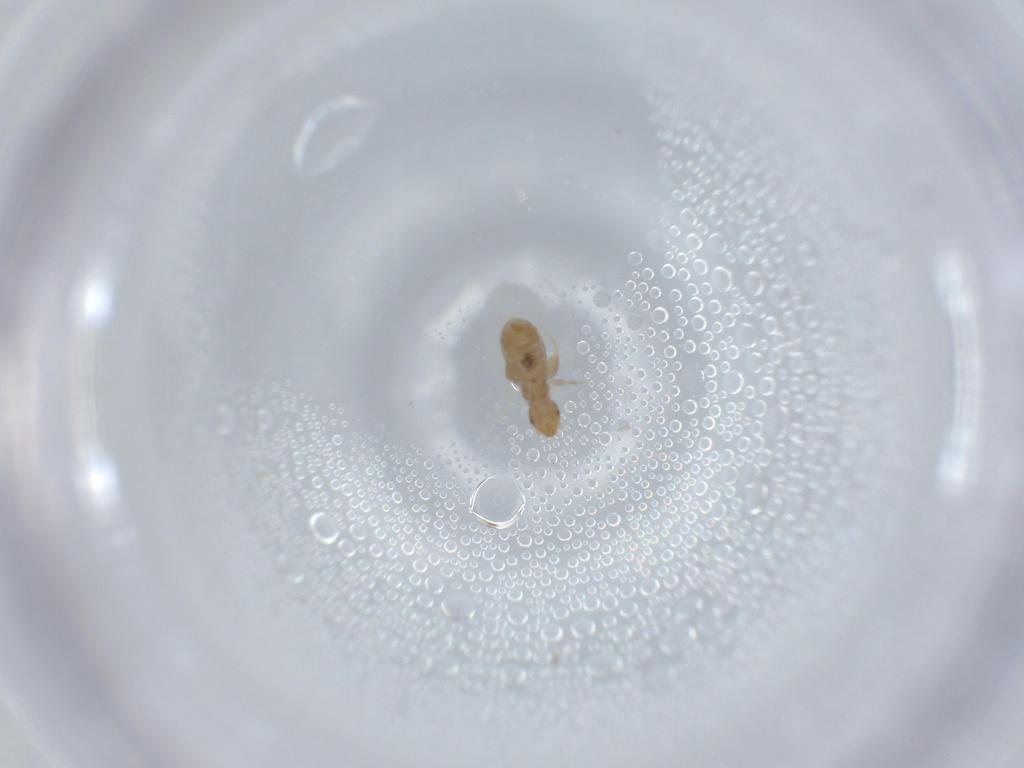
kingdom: Animalia
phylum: Arthropoda
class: Insecta
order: Psocodea
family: Liposcelididae
